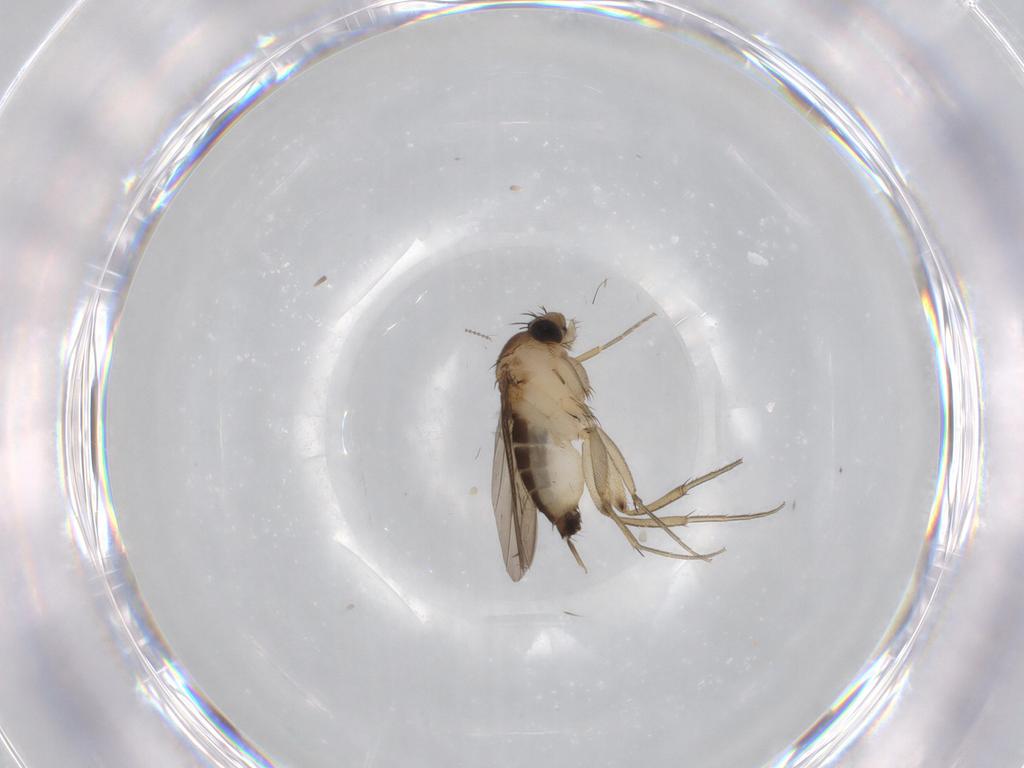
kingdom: Animalia
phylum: Arthropoda
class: Insecta
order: Diptera
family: Phoridae
